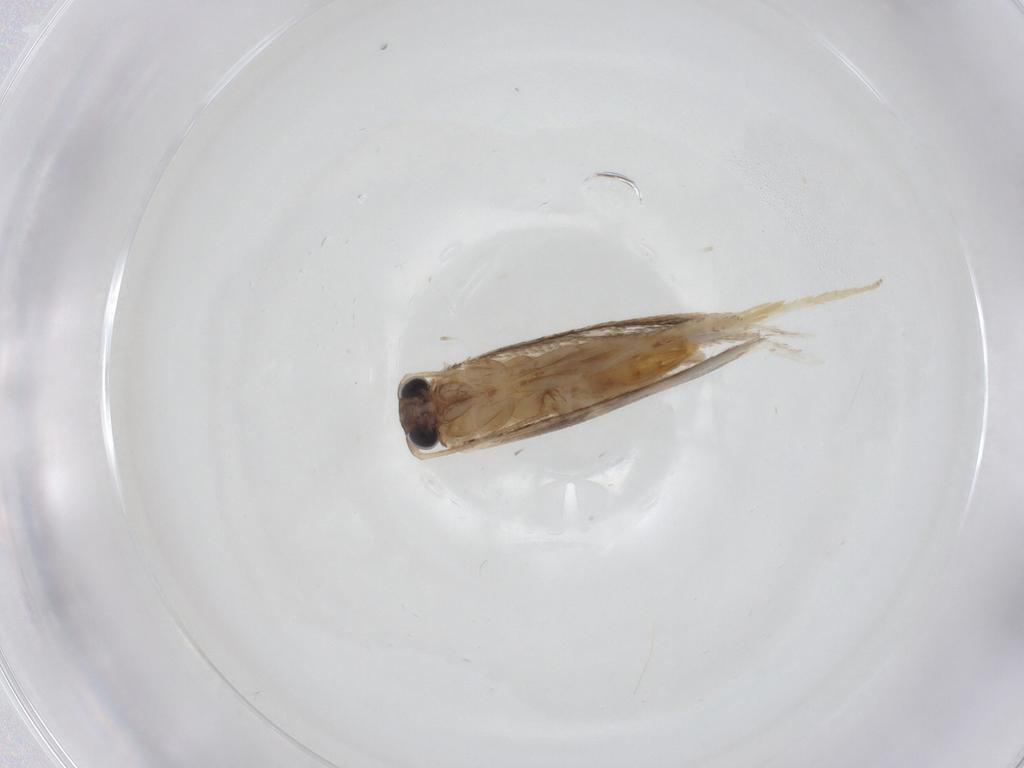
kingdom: Animalia
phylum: Arthropoda
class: Insecta
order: Lepidoptera
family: Tineidae
